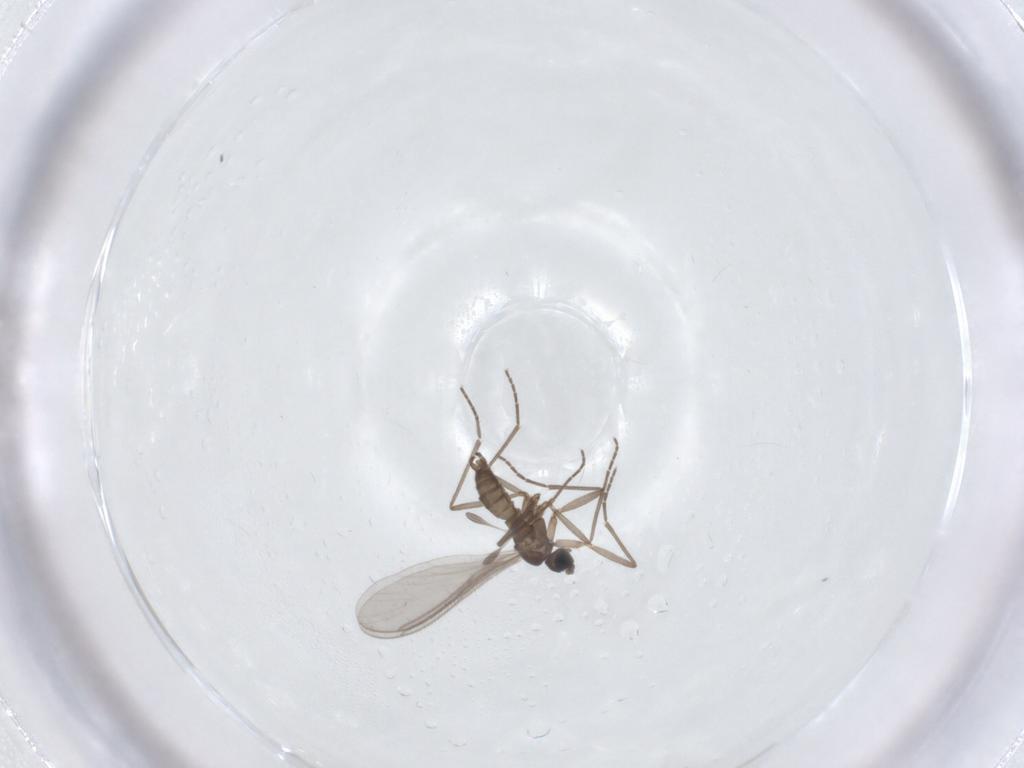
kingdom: Animalia
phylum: Arthropoda
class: Insecta
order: Diptera
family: Sciaridae
